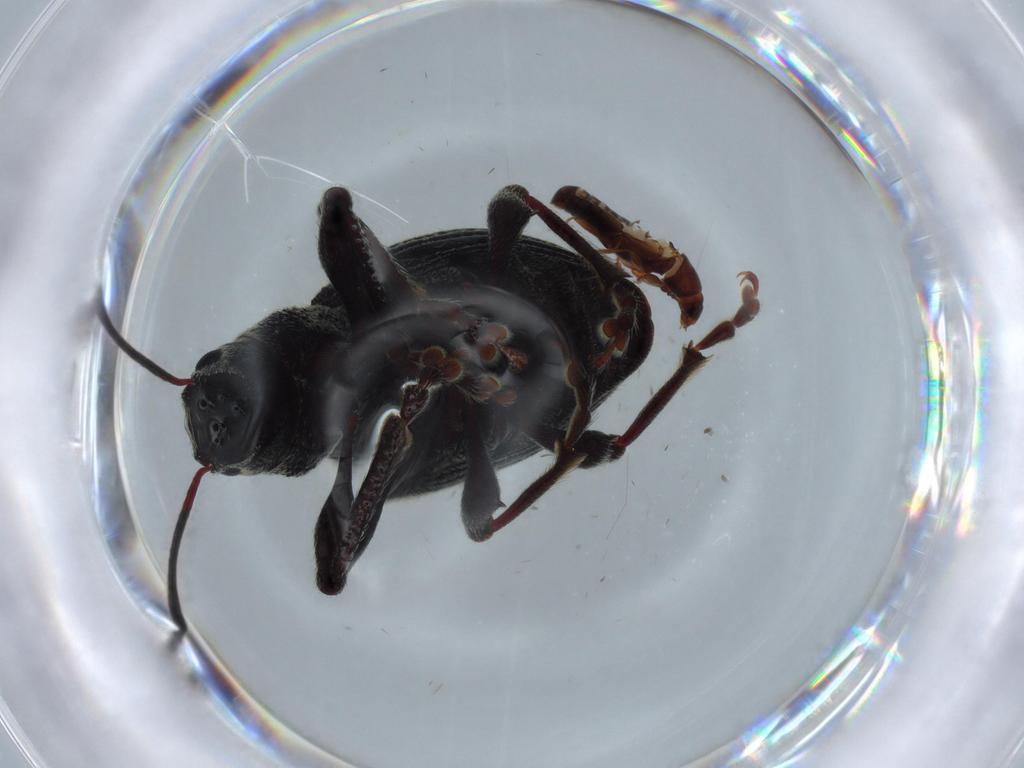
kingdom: Animalia
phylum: Arthropoda
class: Insecta
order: Coleoptera
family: Curculionidae
